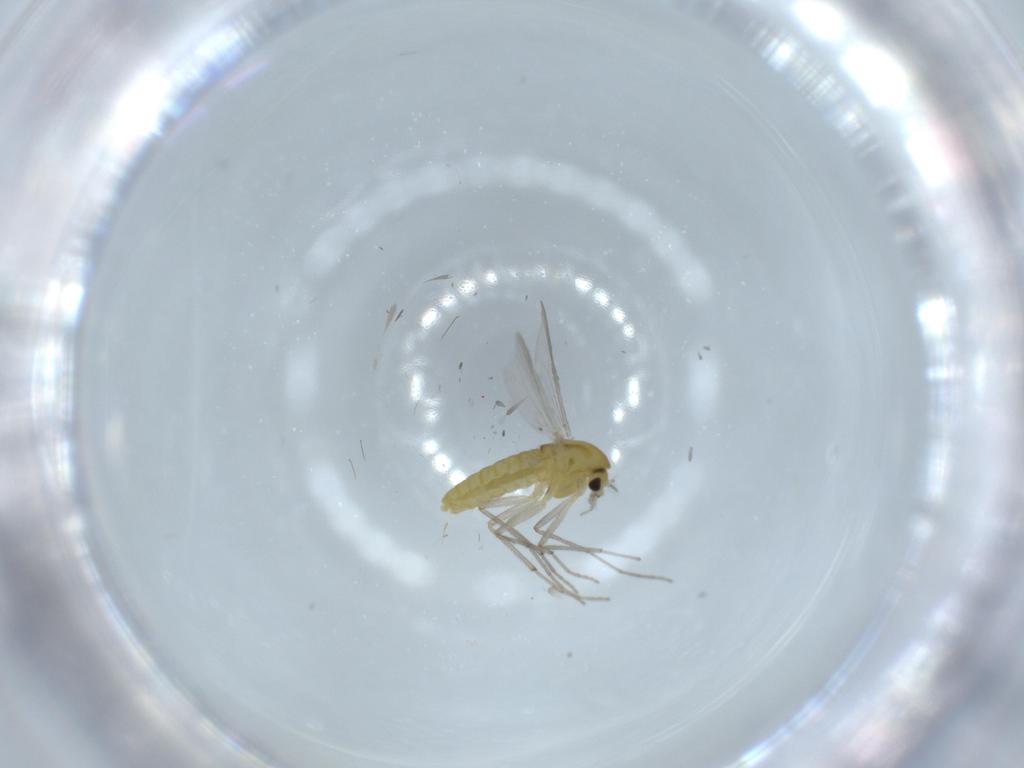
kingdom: Animalia
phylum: Arthropoda
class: Insecta
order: Diptera
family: Chironomidae
